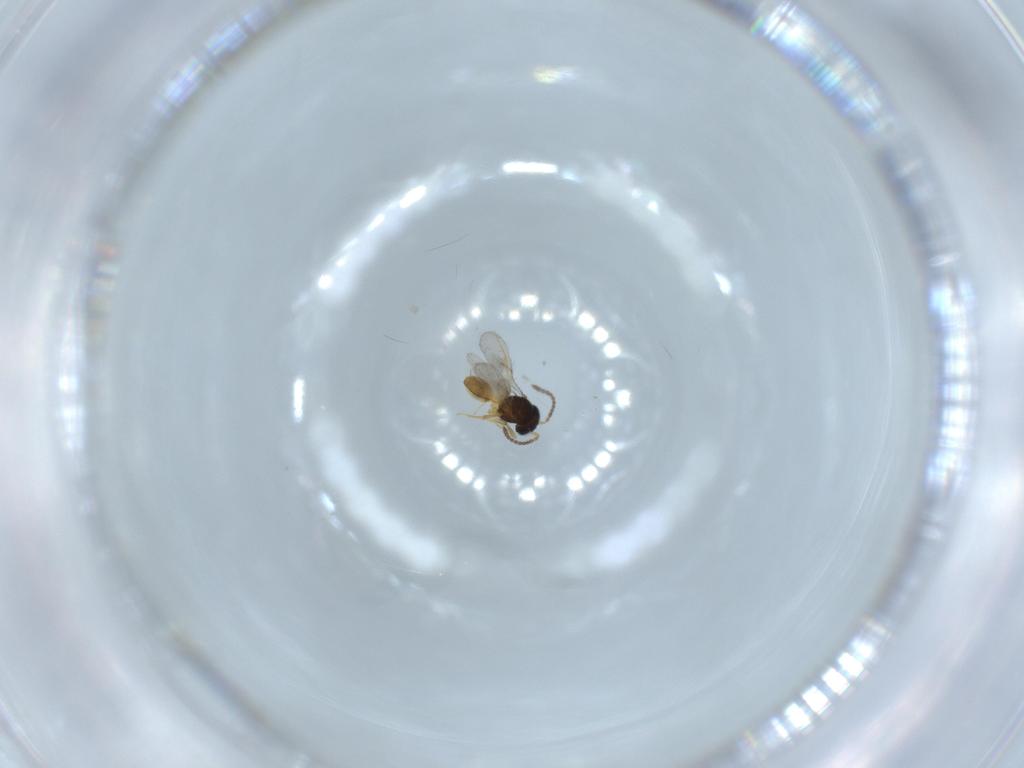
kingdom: Animalia
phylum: Arthropoda
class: Insecta
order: Hymenoptera
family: Scelionidae
